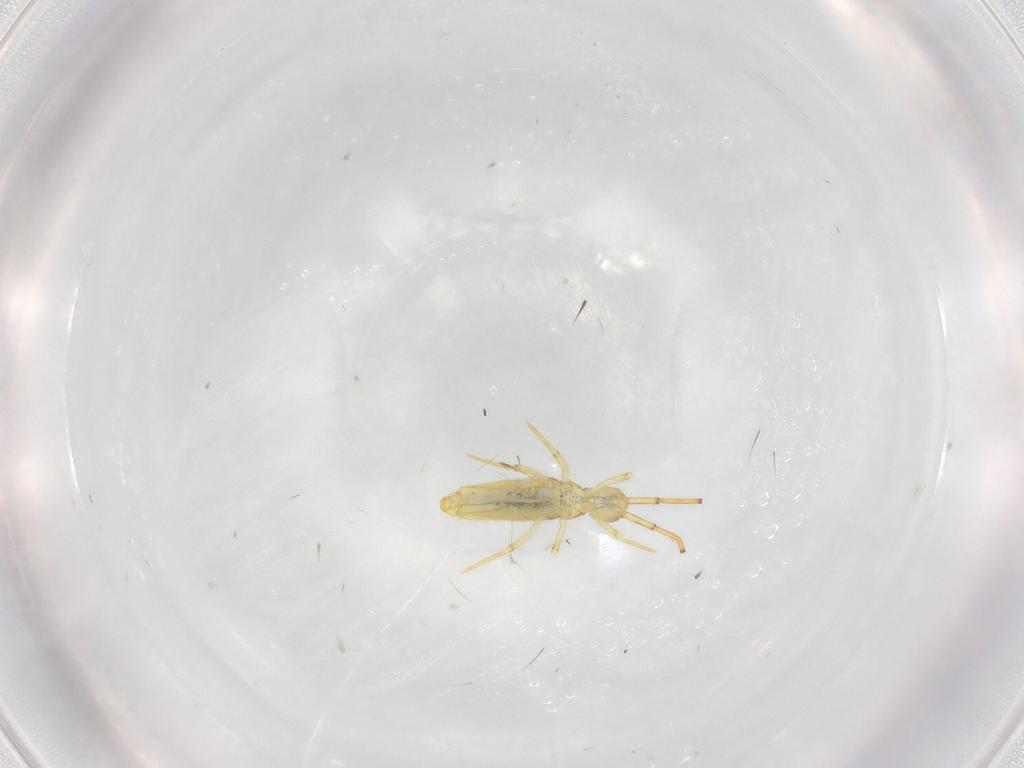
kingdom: Animalia
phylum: Arthropoda
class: Collembola
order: Entomobryomorpha
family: Paronellidae
